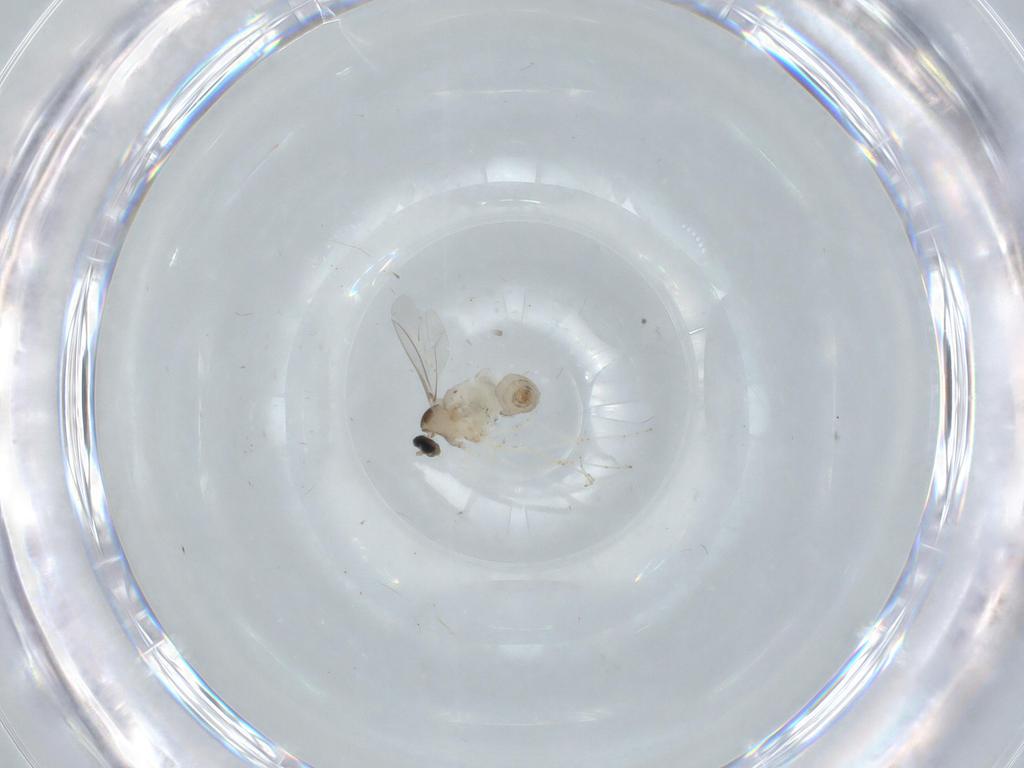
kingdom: Animalia
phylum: Arthropoda
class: Insecta
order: Diptera
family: Cecidomyiidae
